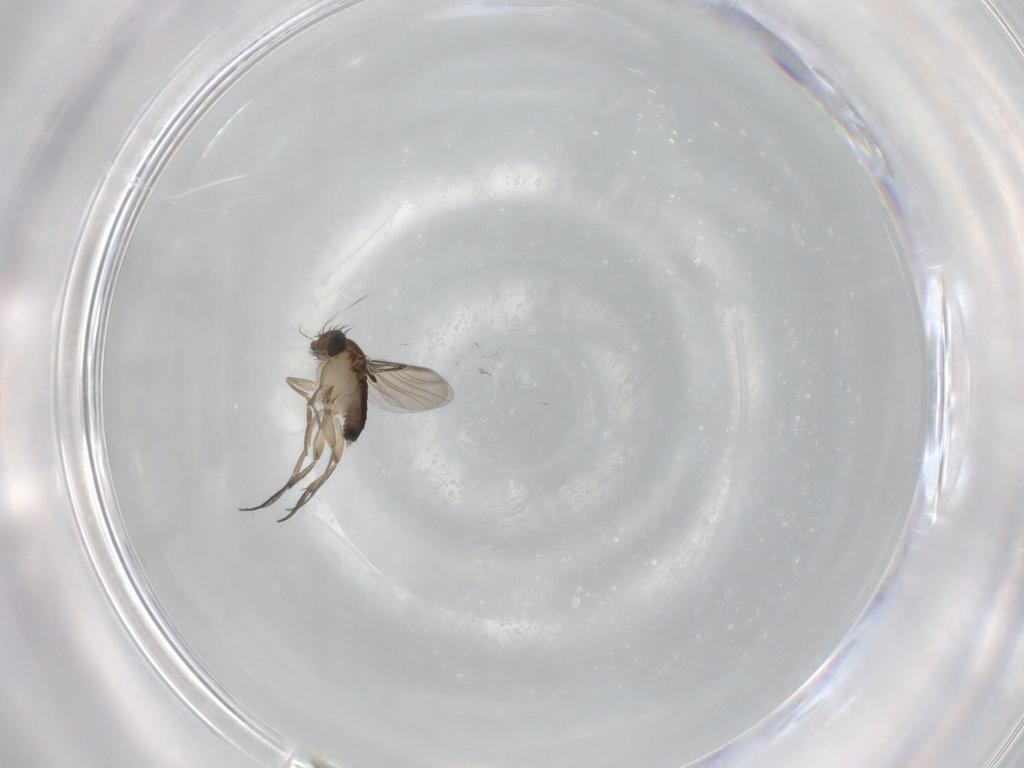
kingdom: Animalia
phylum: Arthropoda
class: Insecta
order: Diptera
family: Phoridae
